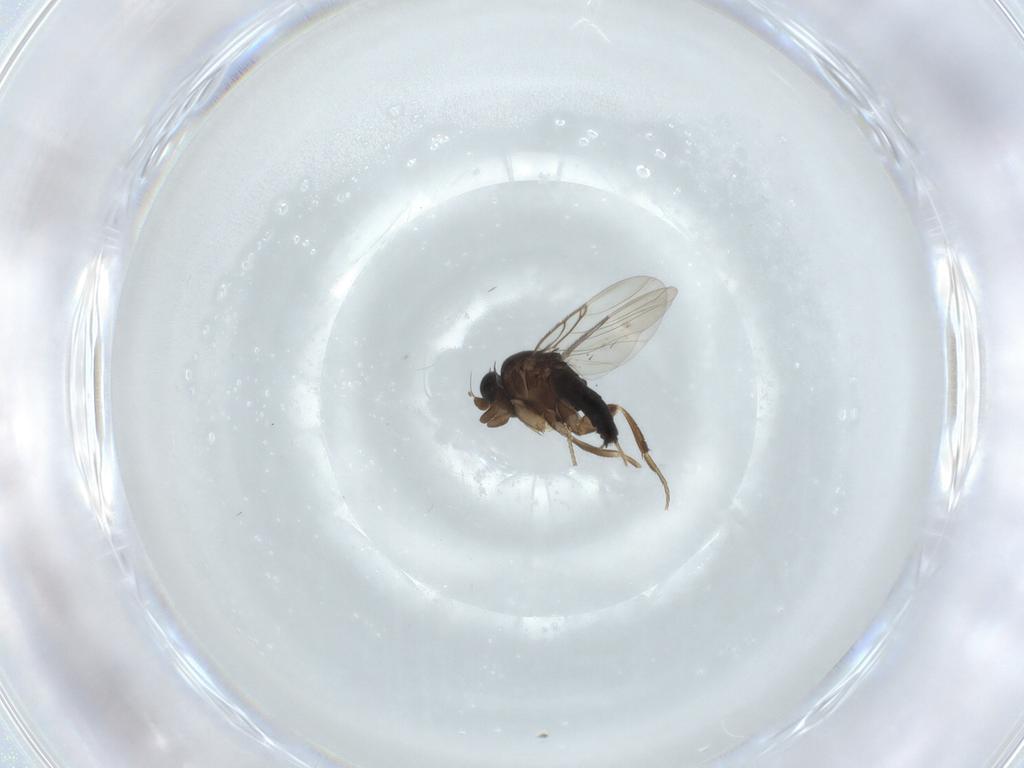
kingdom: Animalia
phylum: Arthropoda
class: Insecta
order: Diptera
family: Phoridae
